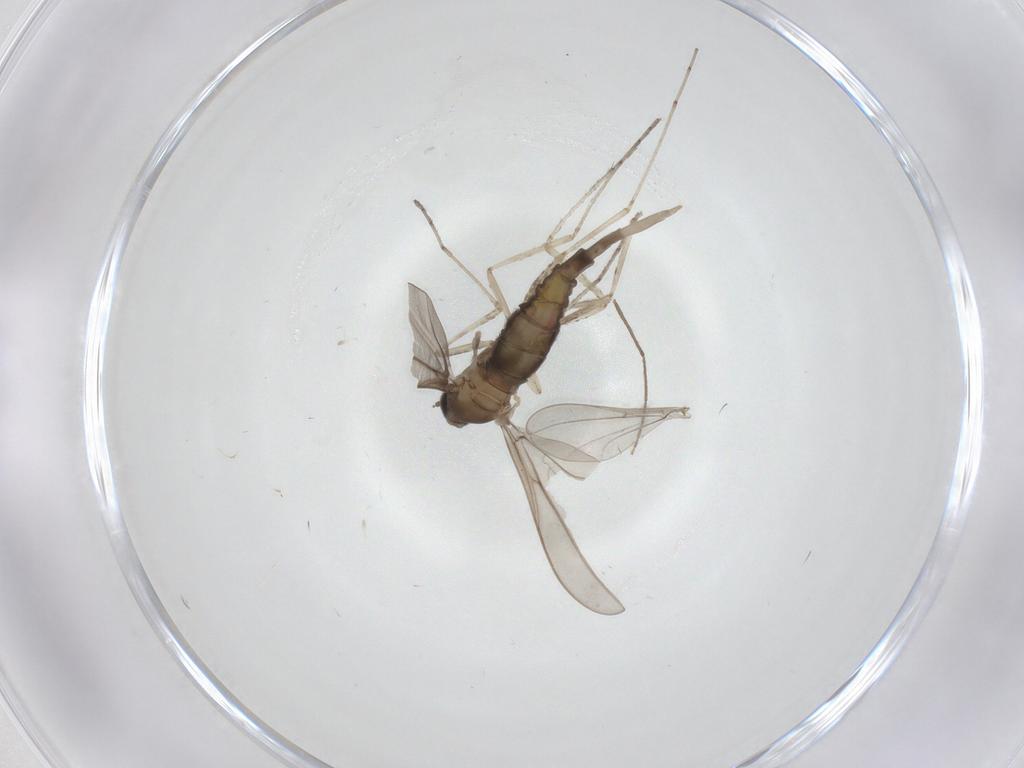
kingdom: Animalia
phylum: Arthropoda
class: Insecta
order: Diptera
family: Cecidomyiidae
